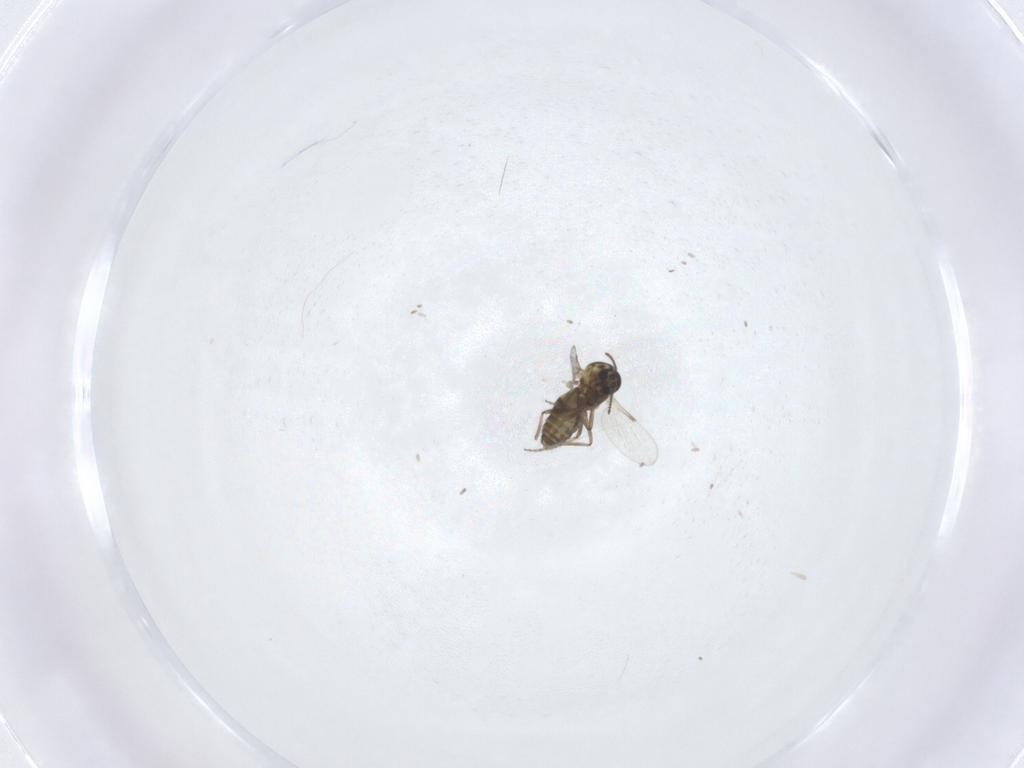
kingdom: Animalia
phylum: Arthropoda
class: Insecta
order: Diptera
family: Ceratopogonidae
